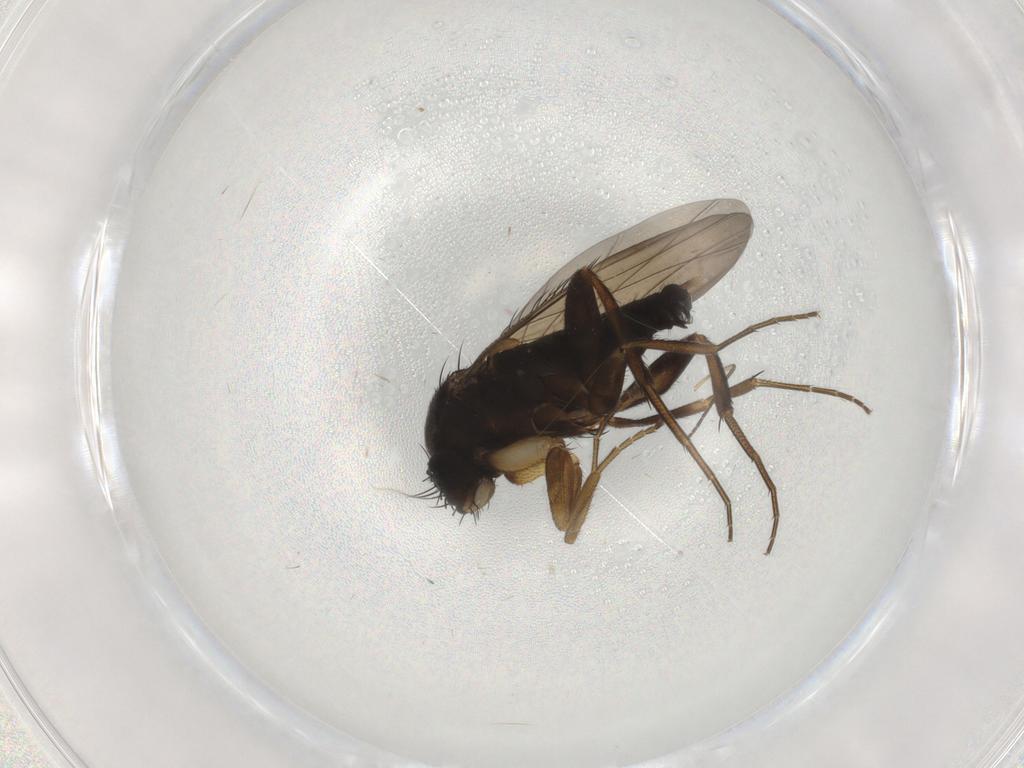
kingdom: Animalia
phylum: Arthropoda
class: Insecta
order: Diptera
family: Phoridae
